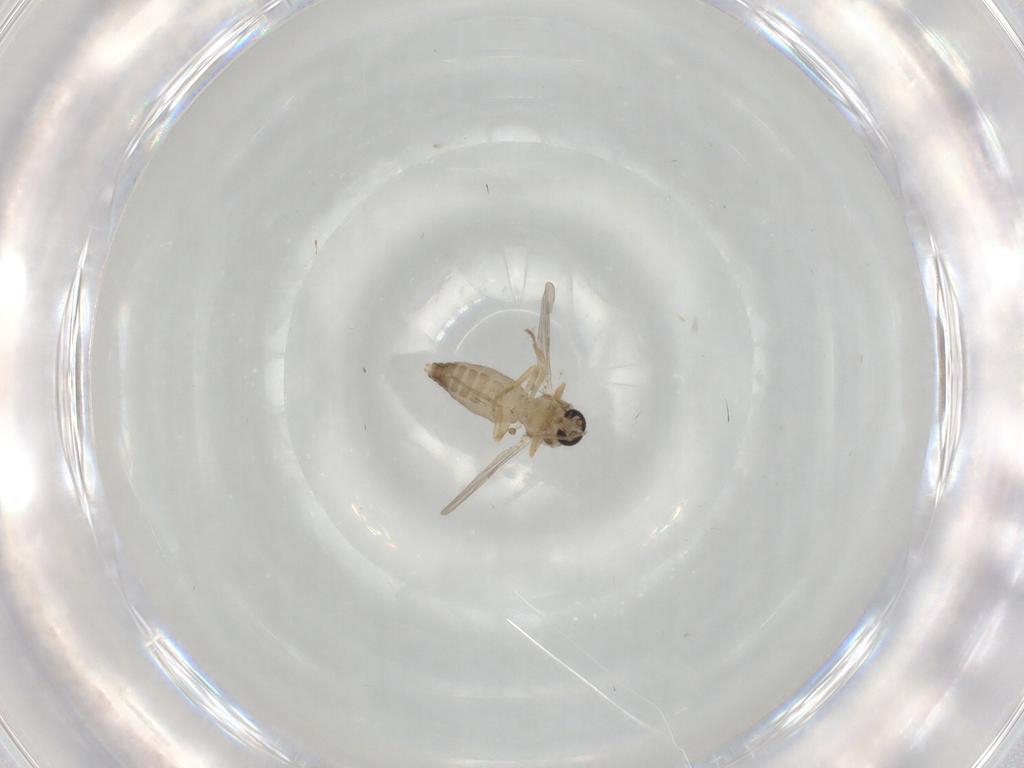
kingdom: Animalia
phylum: Arthropoda
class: Insecta
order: Diptera
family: Ceratopogonidae
